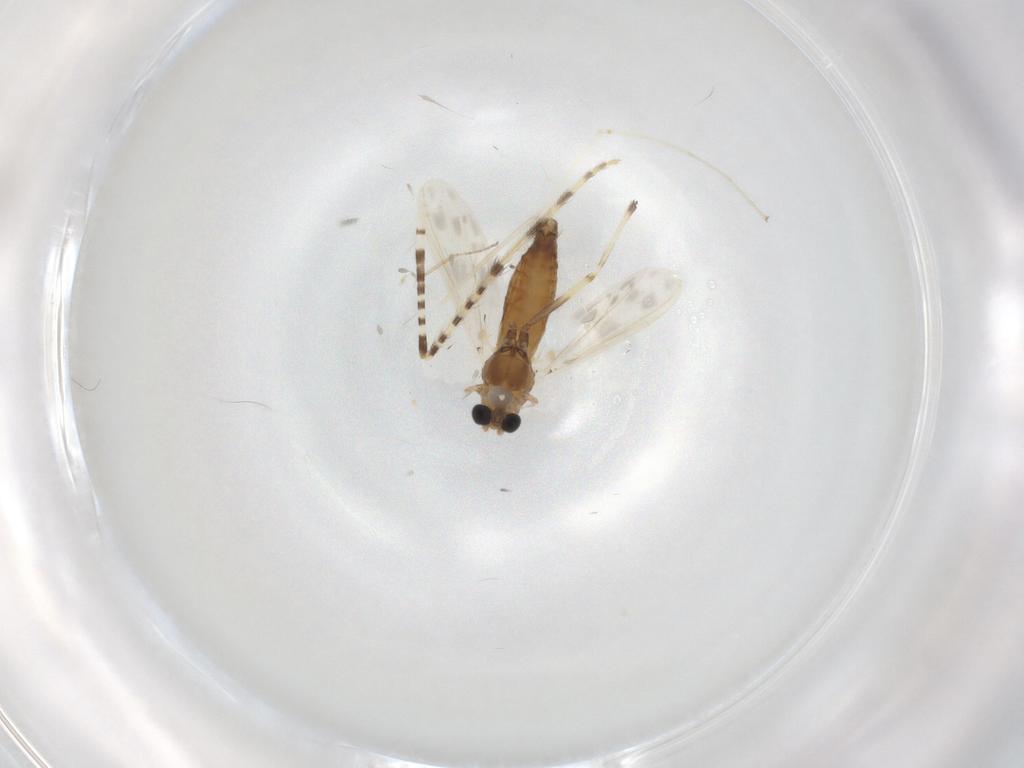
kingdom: Animalia
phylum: Arthropoda
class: Insecta
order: Diptera
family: Chironomidae
